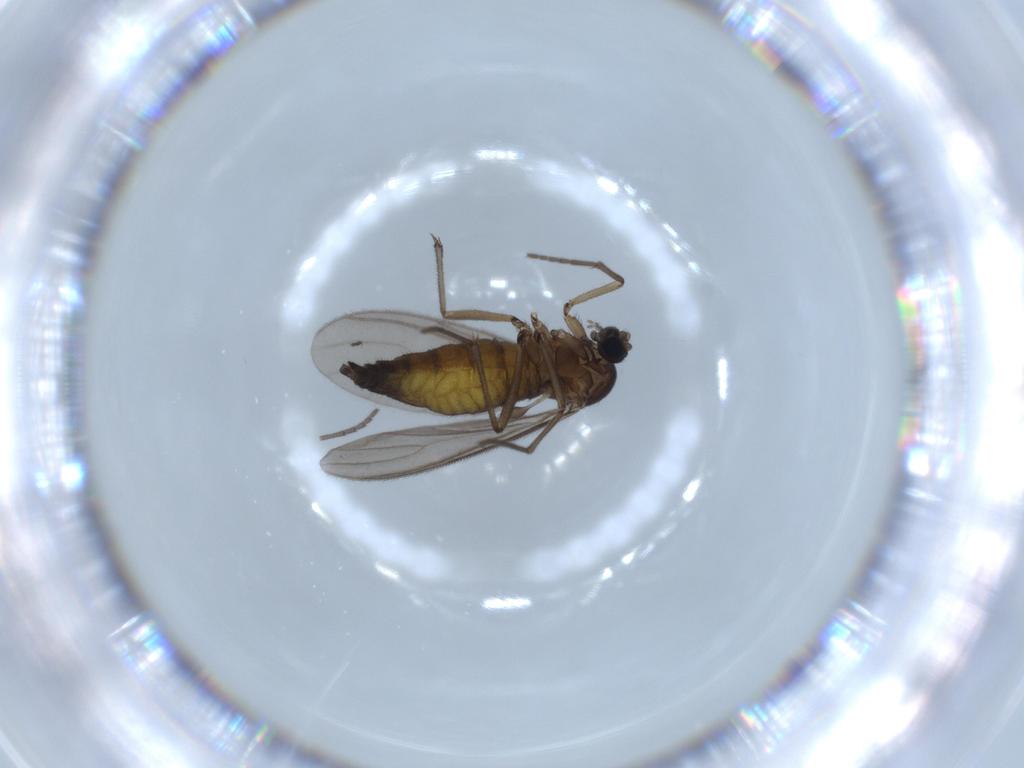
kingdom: Animalia
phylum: Arthropoda
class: Insecta
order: Diptera
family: Sciaridae
